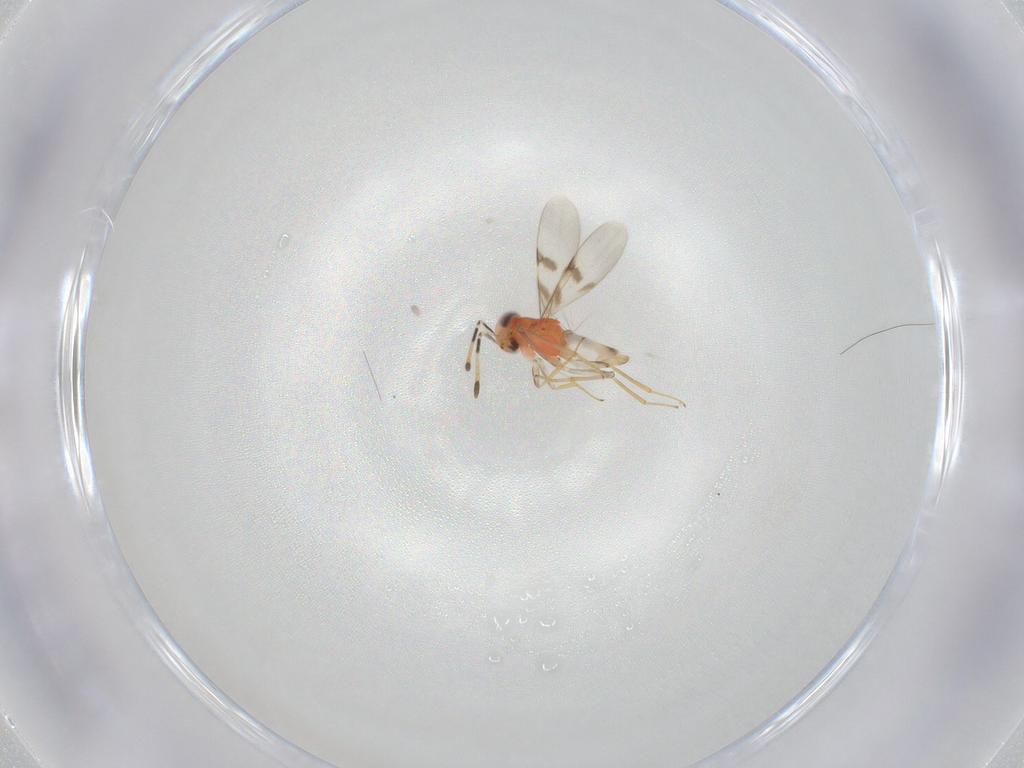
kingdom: Animalia
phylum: Arthropoda
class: Insecta
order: Hymenoptera
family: Encyrtidae
